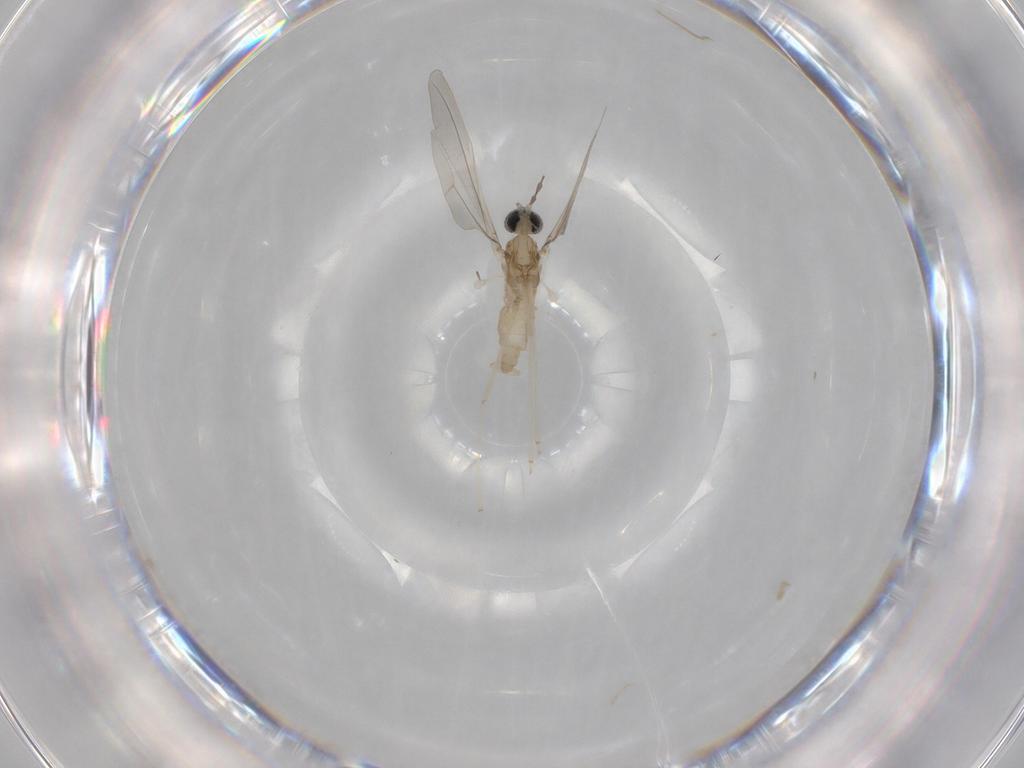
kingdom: Animalia
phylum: Arthropoda
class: Insecta
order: Diptera
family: Cecidomyiidae
